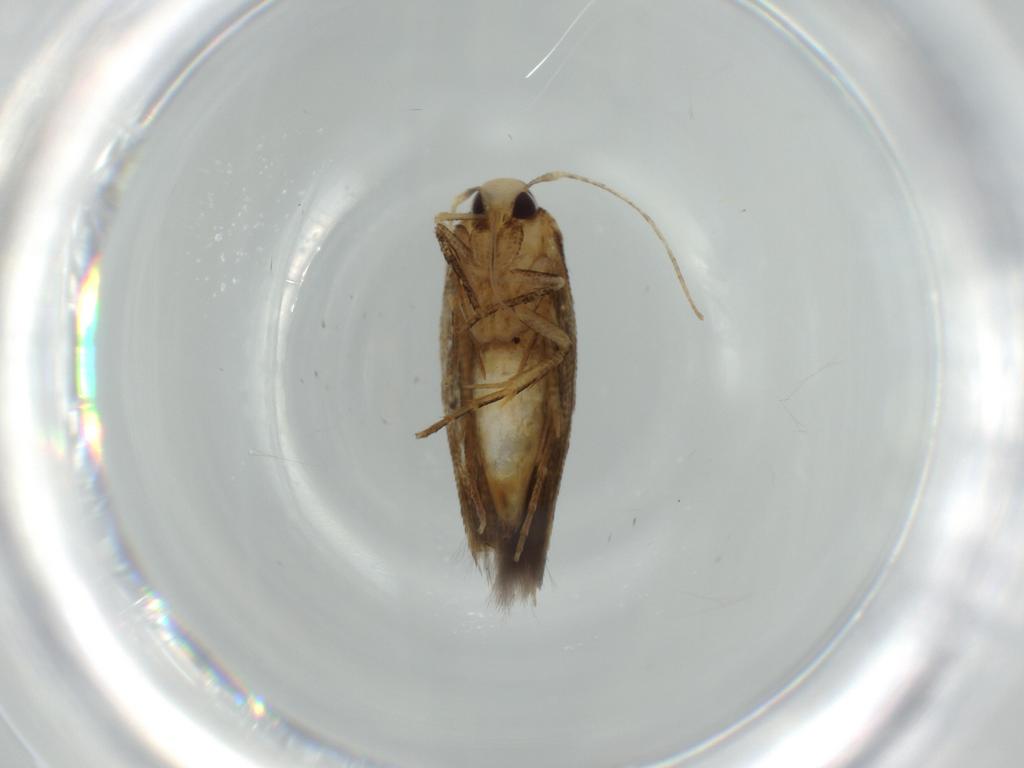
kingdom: Animalia
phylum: Arthropoda
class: Insecta
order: Lepidoptera
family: Cosmopterigidae
